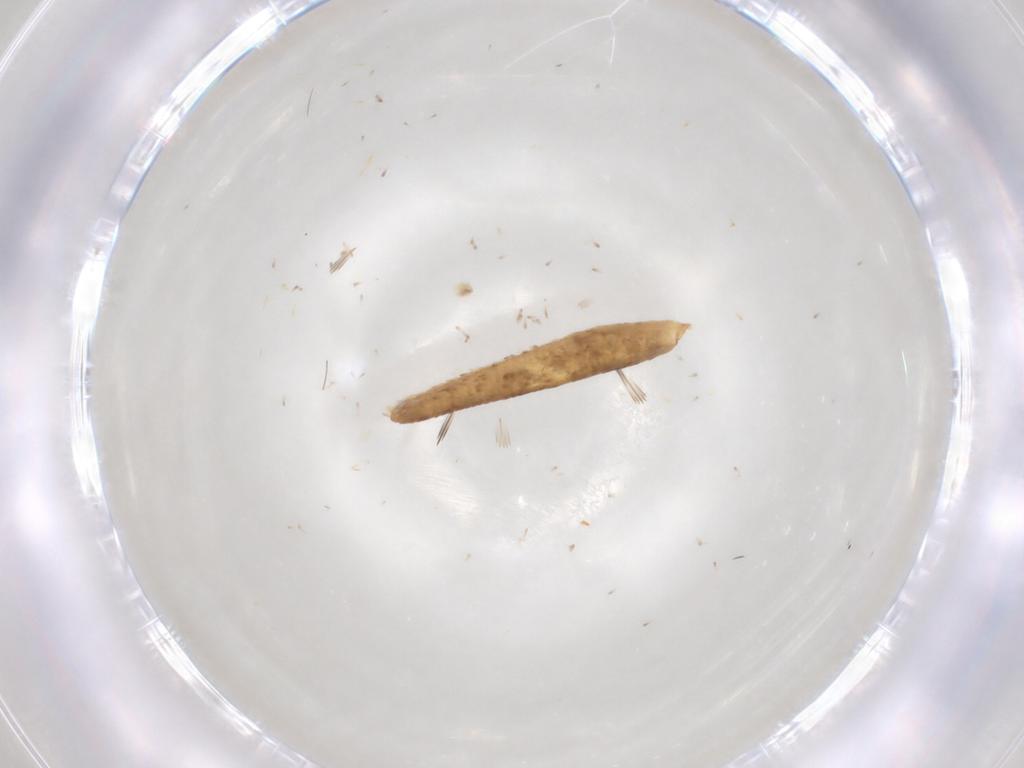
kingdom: Animalia
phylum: Arthropoda
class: Insecta
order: Lepidoptera
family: Geometridae
